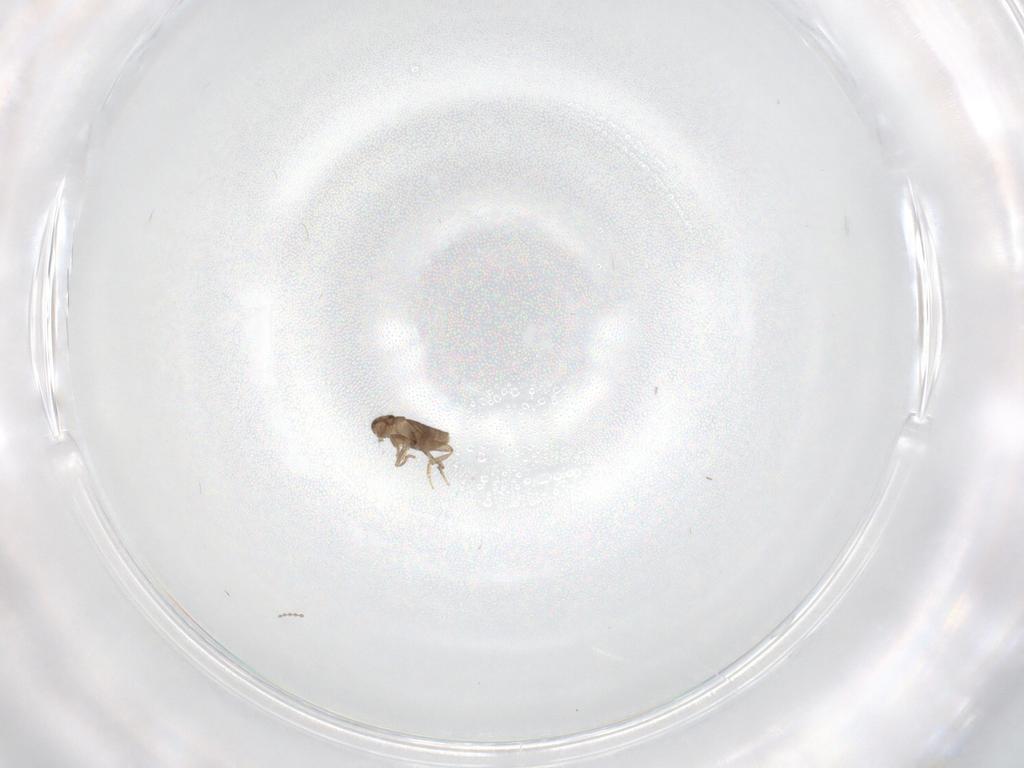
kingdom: Animalia
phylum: Arthropoda
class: Insecta
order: Diptera
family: Cecidomyiidae
